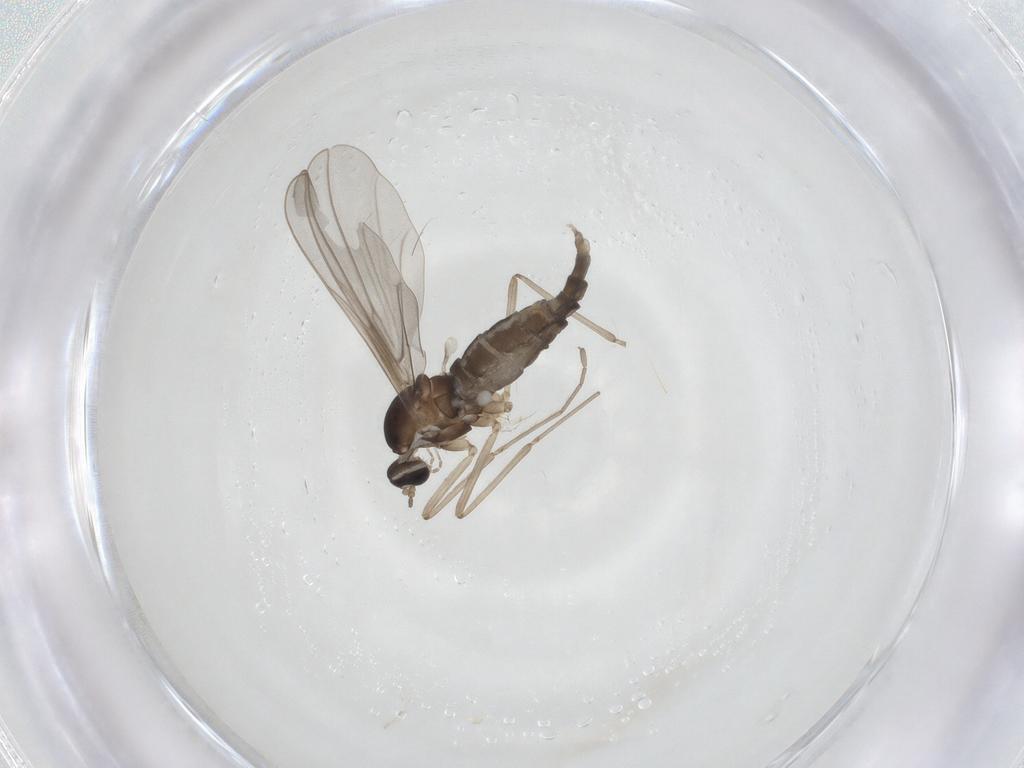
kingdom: Animalia
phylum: Arthropoda
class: Insecta
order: Diptera
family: Cecidomyiidae
